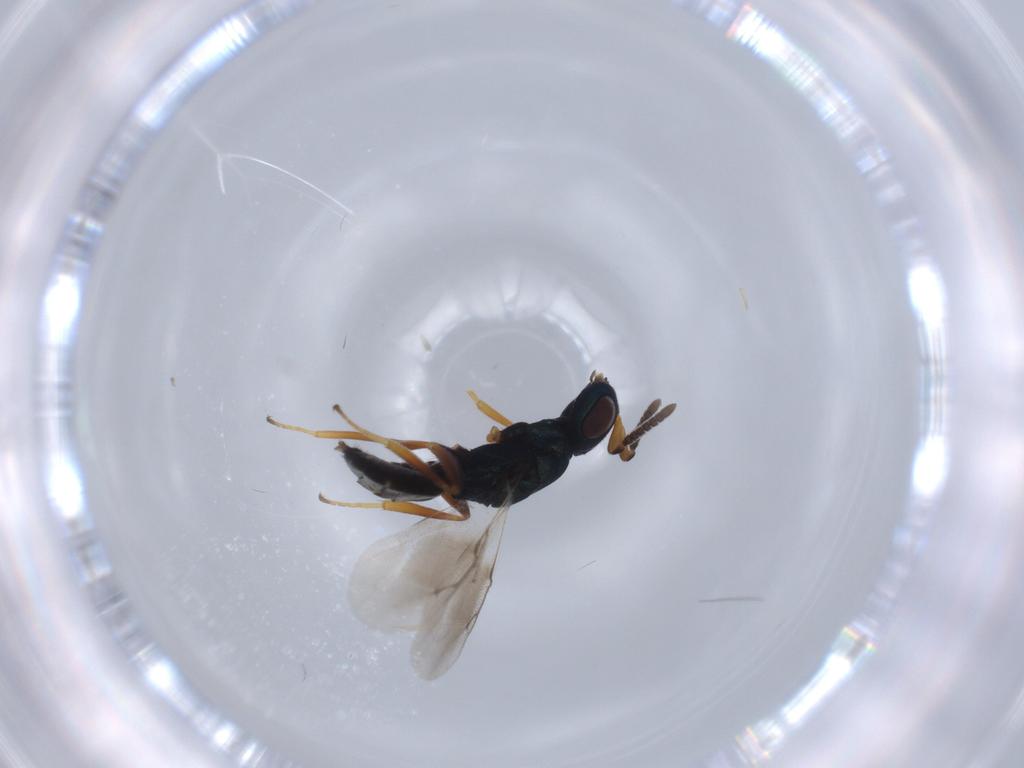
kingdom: Animalia
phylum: Arthropoda
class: Insecta
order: Hymenoptera
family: Pteromalidae
